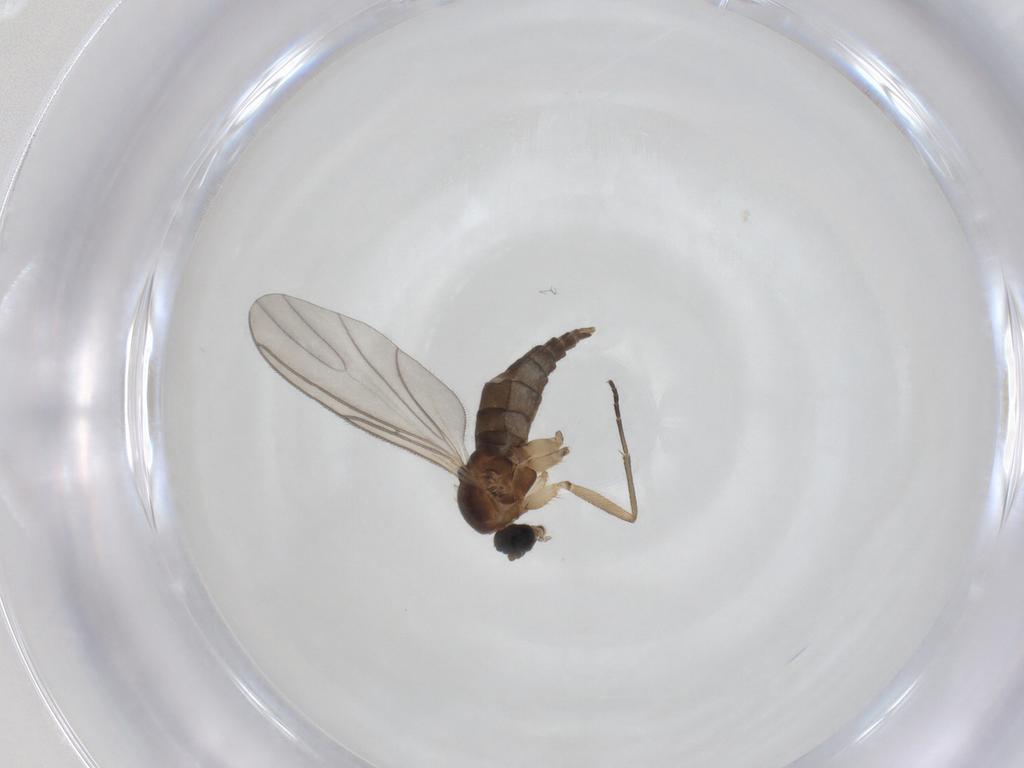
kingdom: Animalia
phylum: Arthropoda
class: Insecta
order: Diptera
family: Sciaridae
